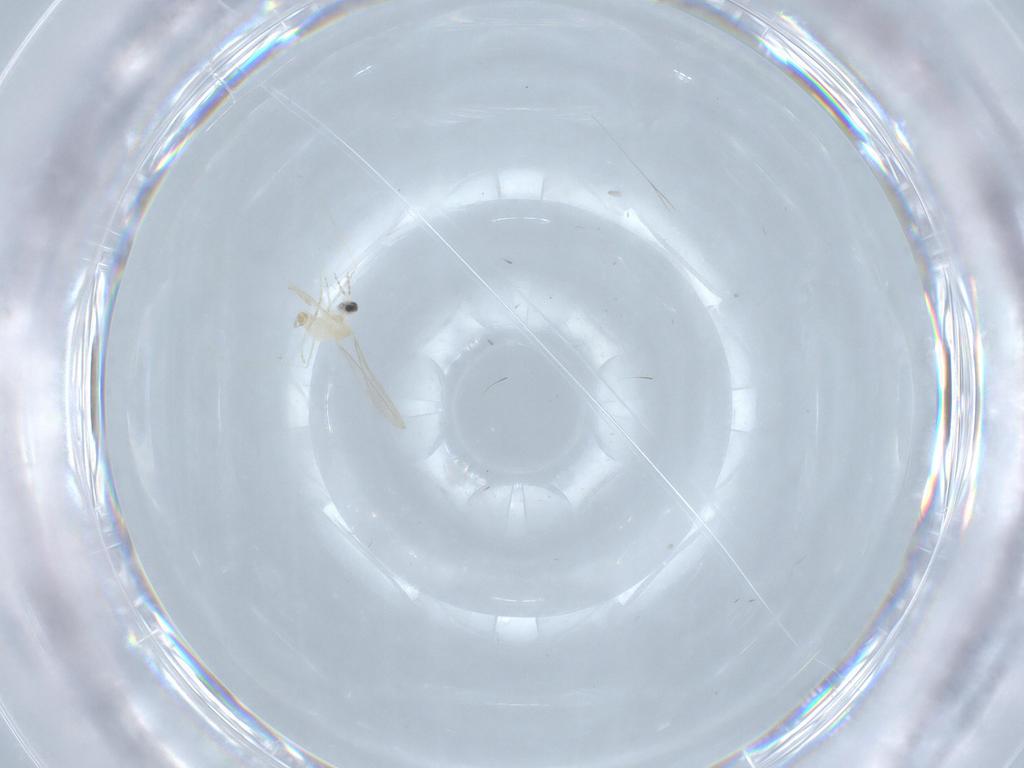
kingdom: Animalia
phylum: Arthropoda
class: Insecta
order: Diptera
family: Cecidomyiidae
